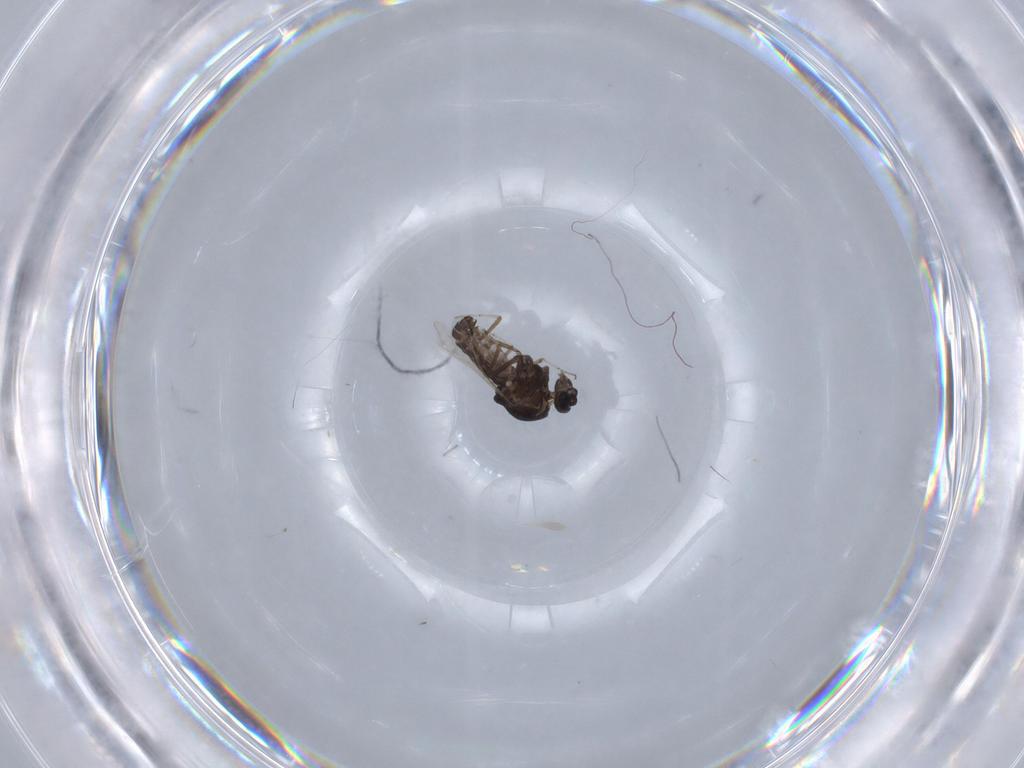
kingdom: Animalia
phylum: Arthropoda
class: Insecta
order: Diptera
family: Ceratopogonidae
